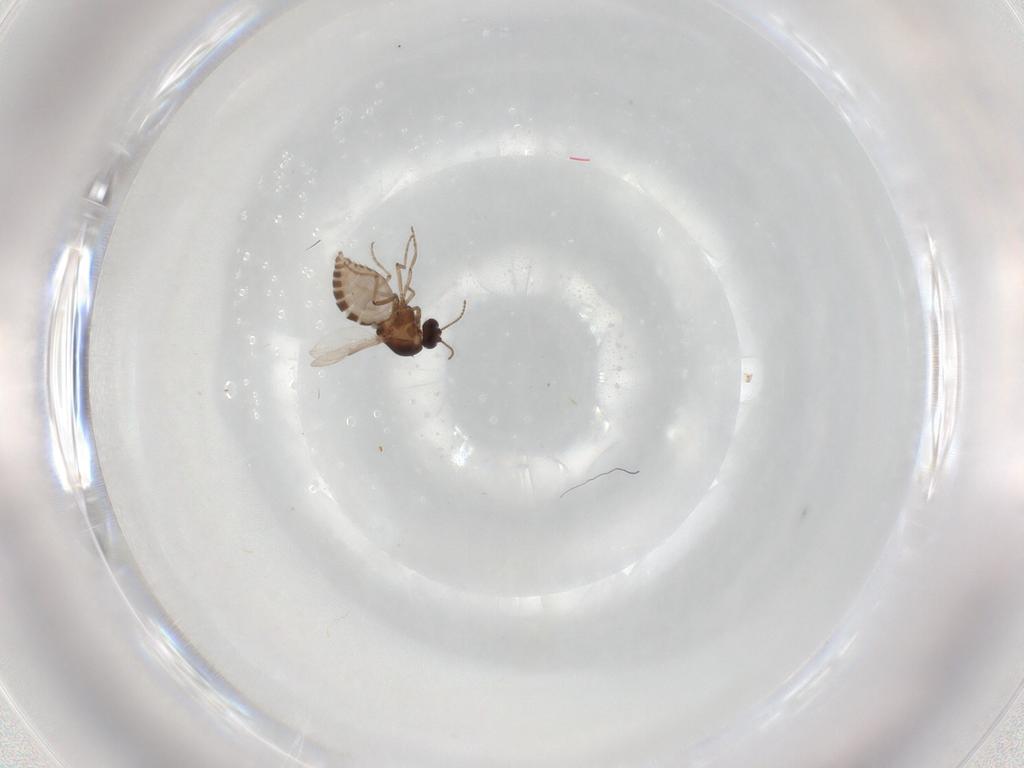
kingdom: Animalia
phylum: Arthropoda
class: Insecta
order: Diptera
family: Ceratopogonidae
